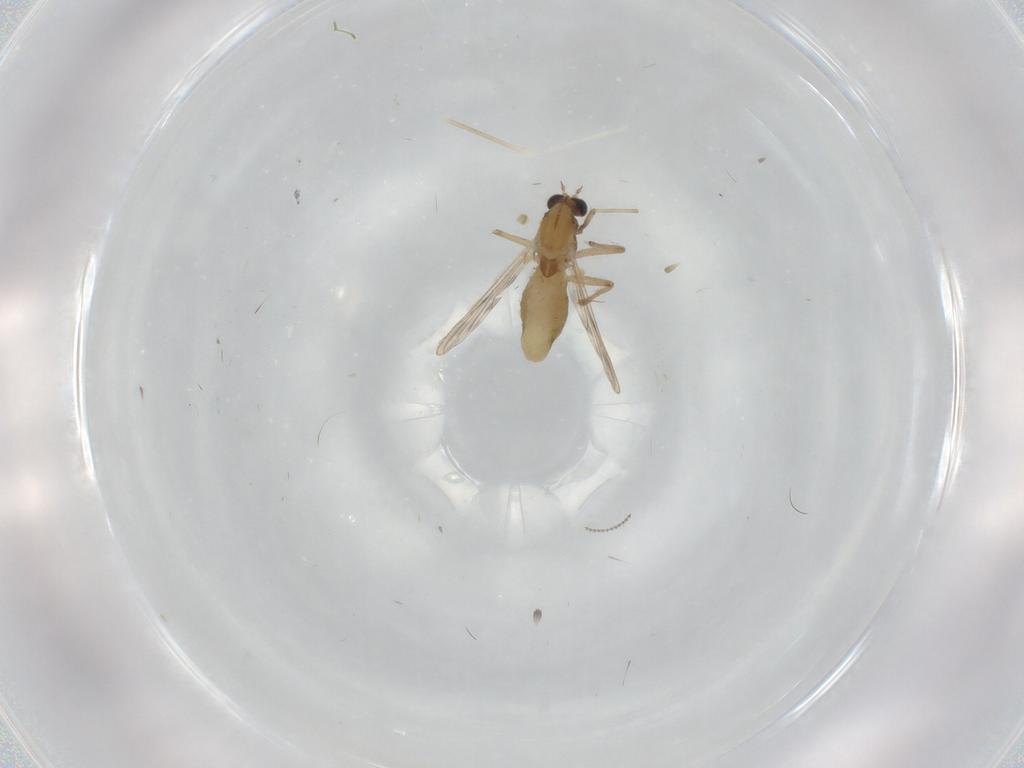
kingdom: Animalia
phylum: Arthropoda
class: Insecta
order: Diptera
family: Chironomidae
